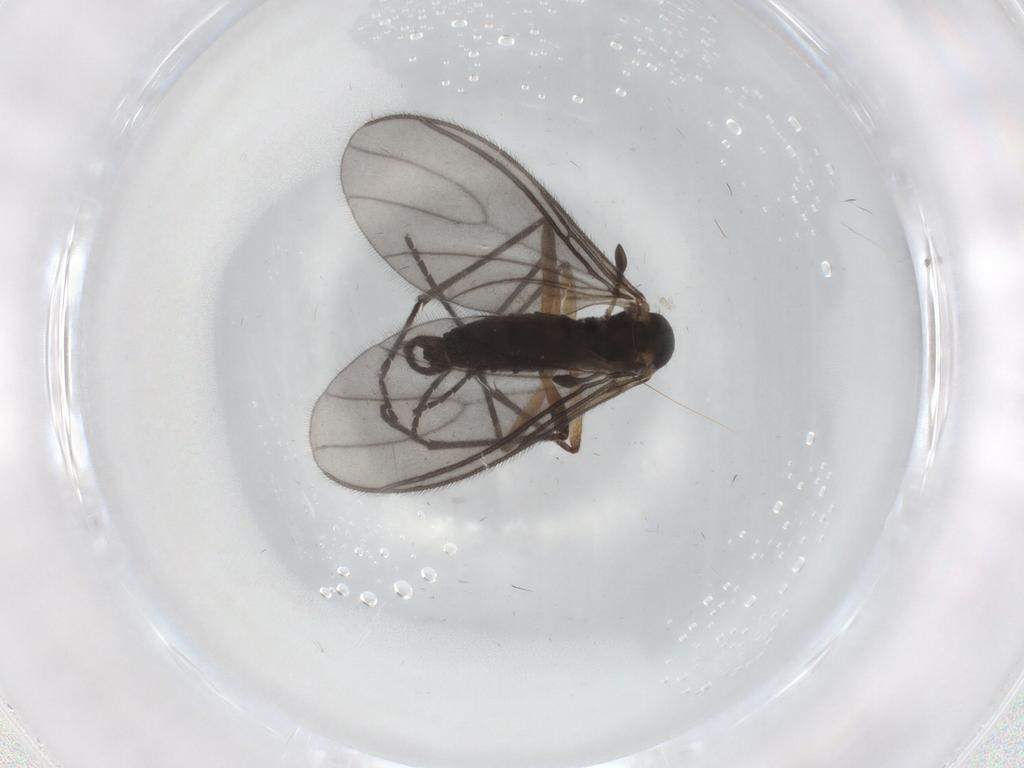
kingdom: Animalia
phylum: Arthropoda
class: Insecta
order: Diptera
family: Sciaridae
